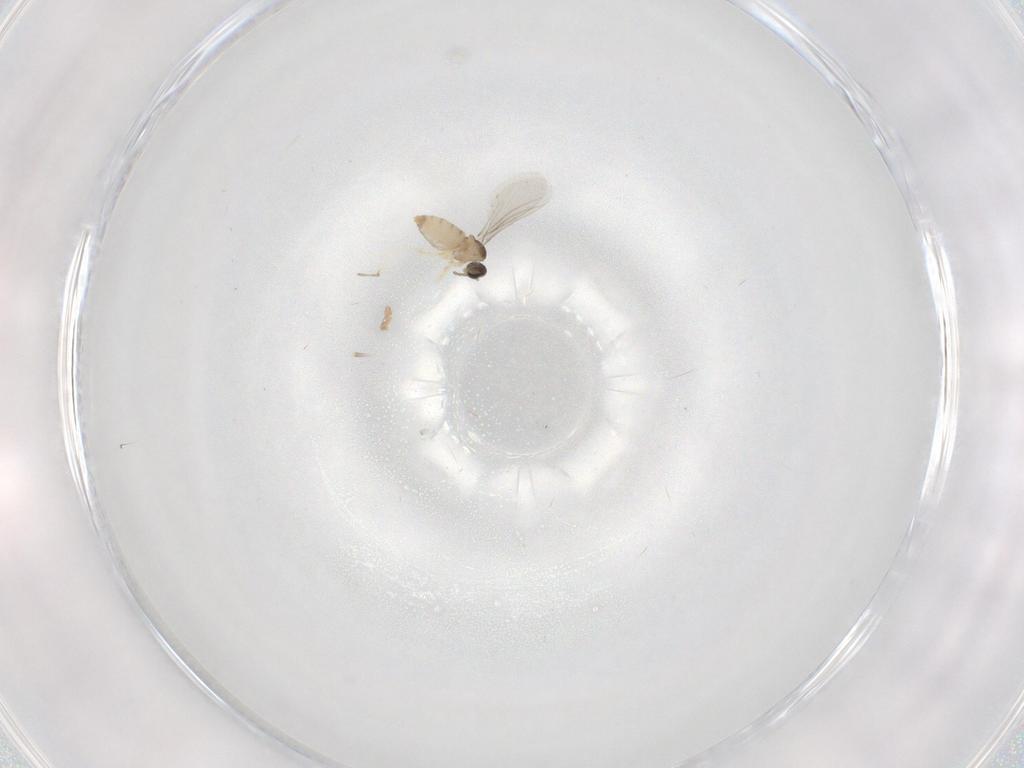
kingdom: Animalia
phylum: Arthropoda
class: Insecta
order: Diptera
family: Cecidomyiidae
